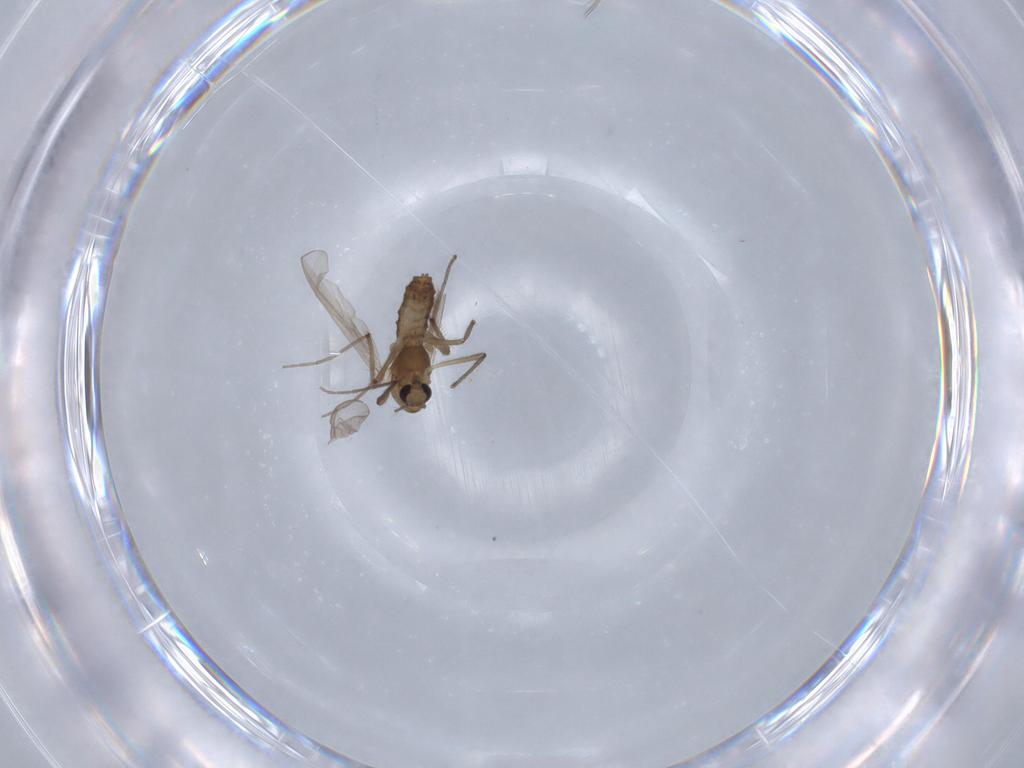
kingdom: Animalia
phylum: Arthropoda
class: Insecta
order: Diptera
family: Chironomidae
